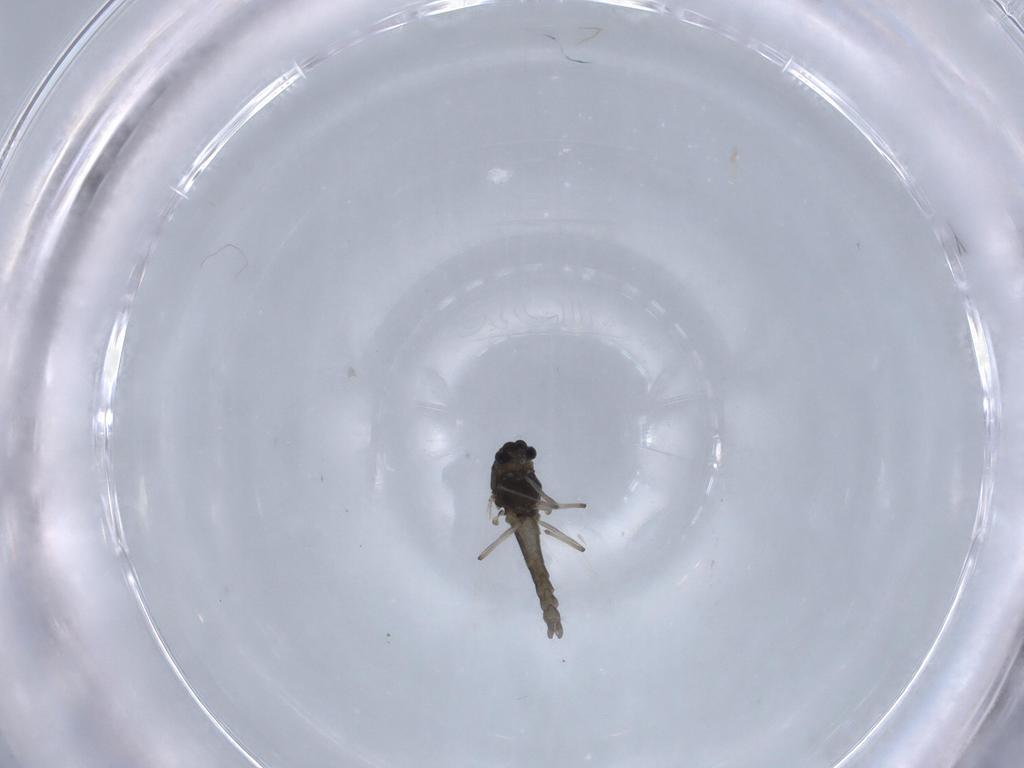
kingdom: Animalia
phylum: Arthropoda
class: Insecta
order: Diptera
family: Chironomidae
